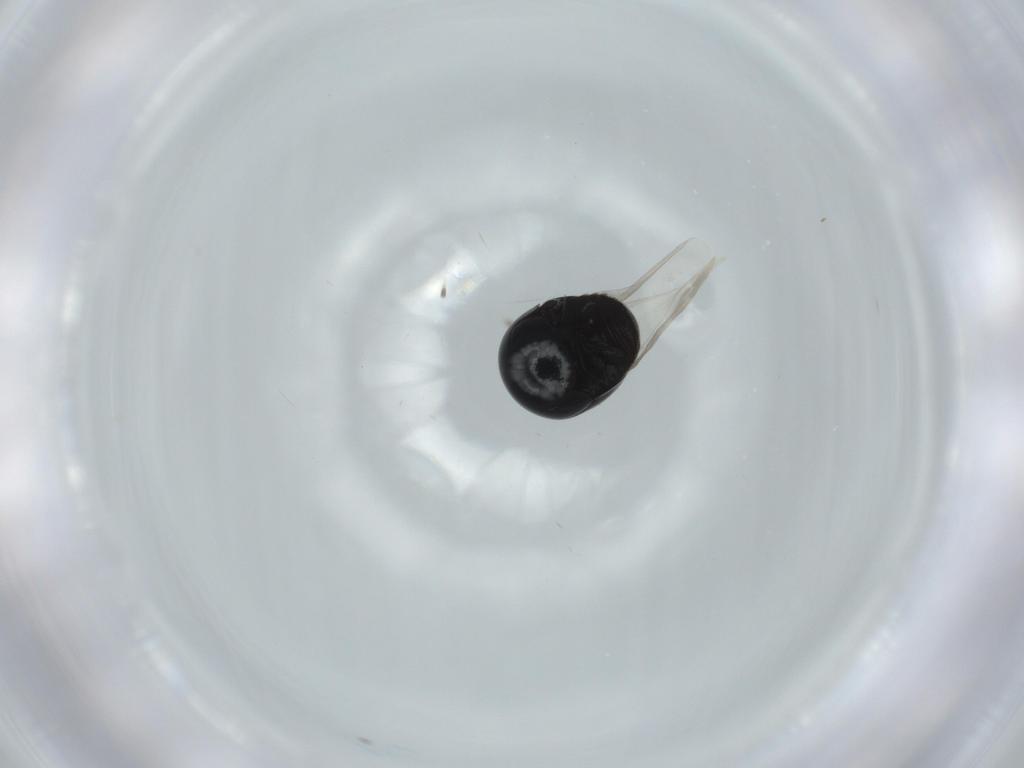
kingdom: Animalia
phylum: Arthropoda
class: Insecta
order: Coleoptera
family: Cybocephalidae
